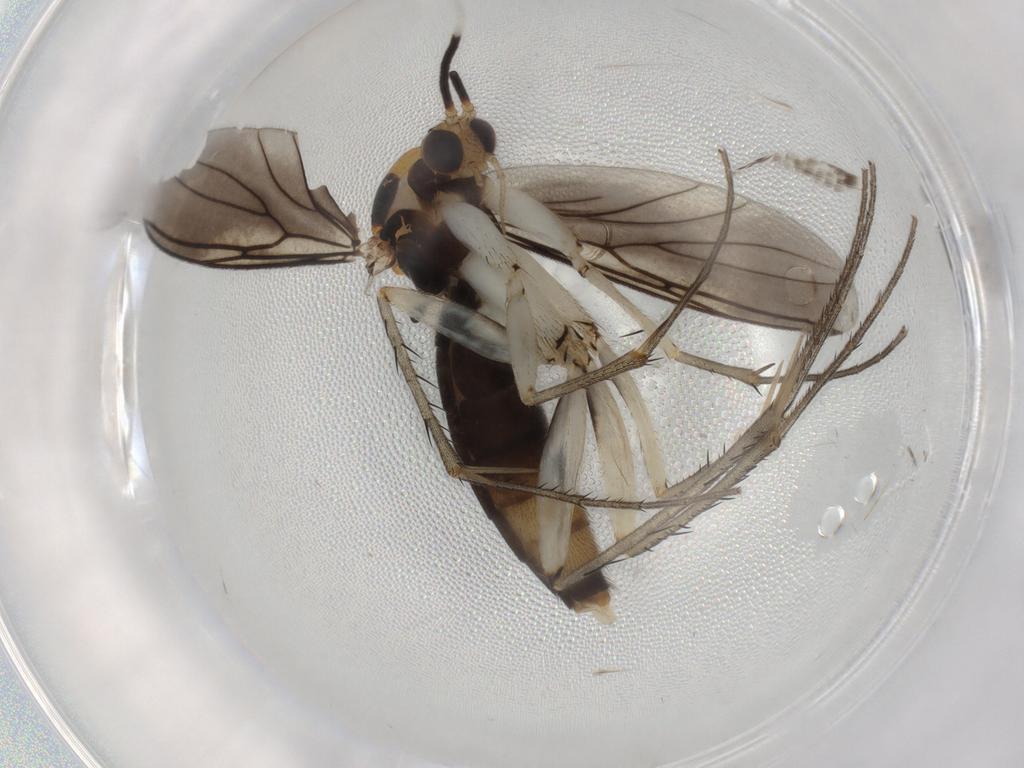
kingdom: Animalia
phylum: Arthropoda
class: Insecta
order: Diptera
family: Mycetophilidae
